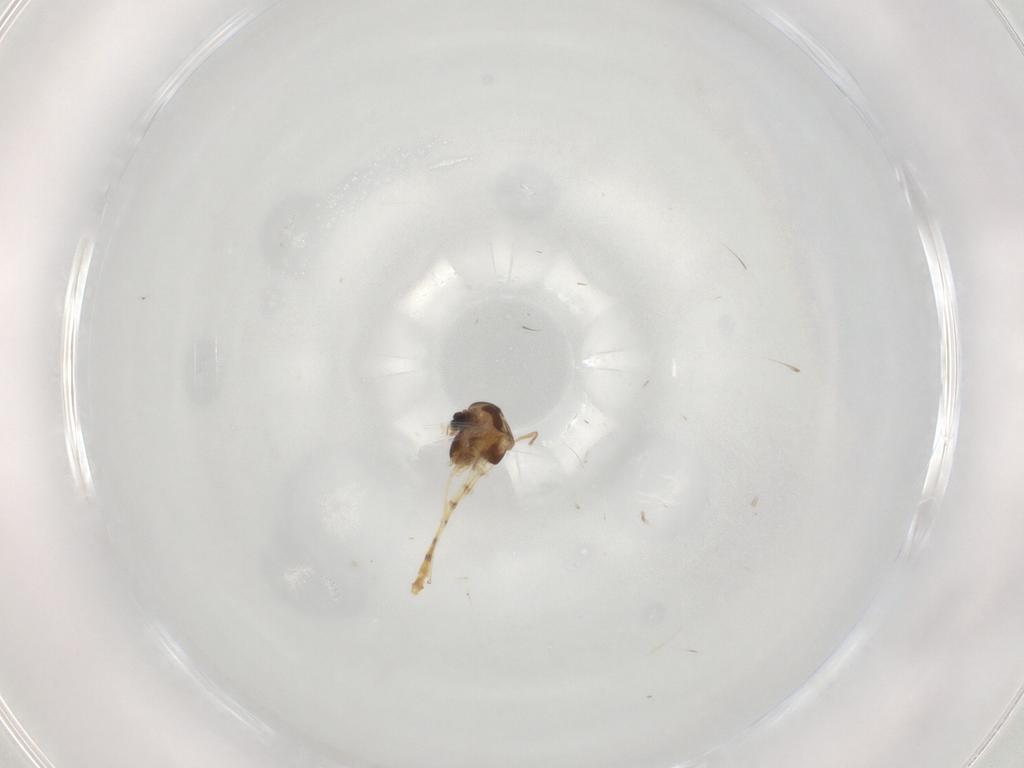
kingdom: Animalia
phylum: Arthropoda
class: Insecta
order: Diptera
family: Chironomidae
